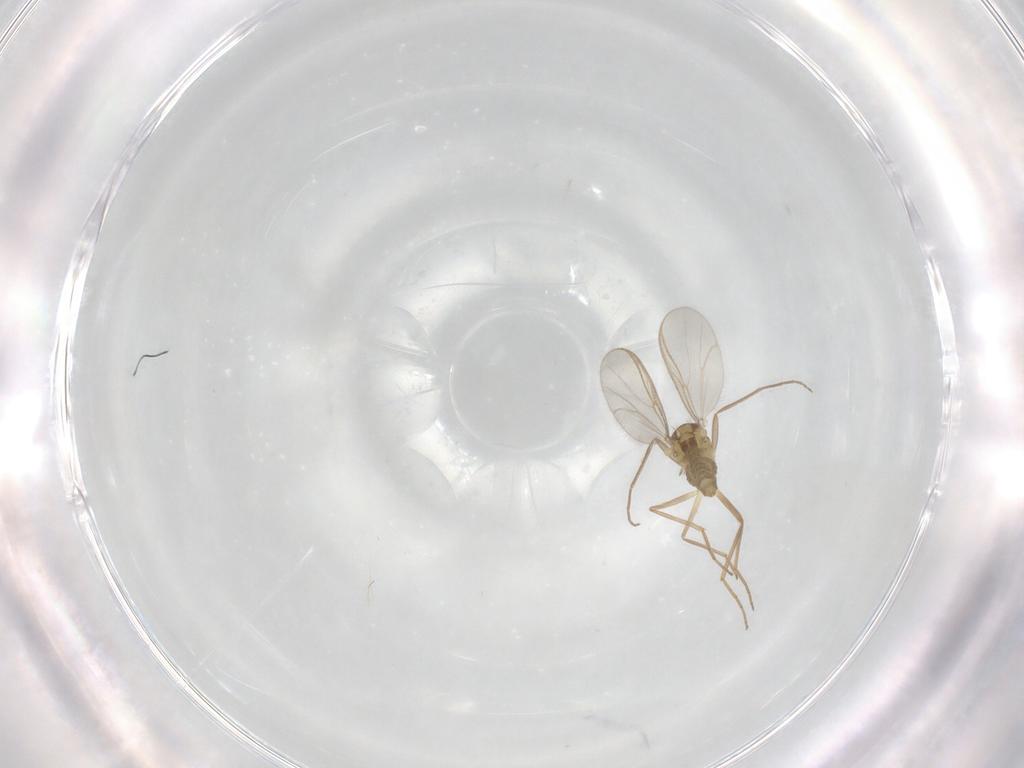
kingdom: Animalia
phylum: Arthropoda
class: Insecta
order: Diptera
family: Chironomidae
